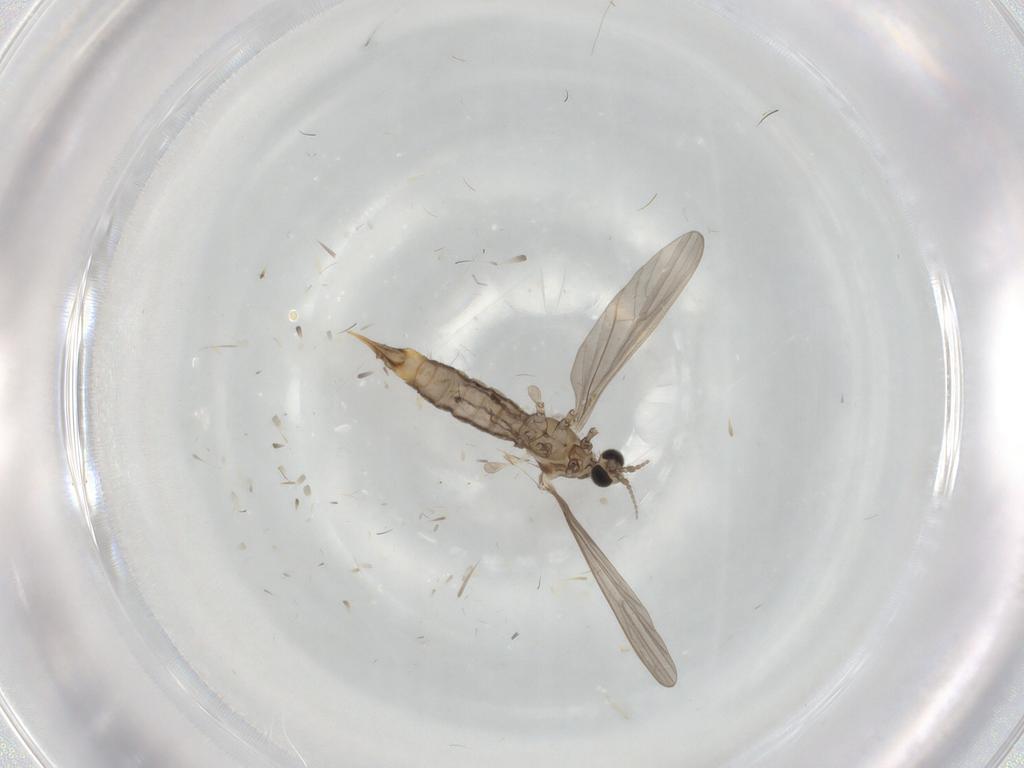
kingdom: Animalia
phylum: Arthropoda
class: Insecta
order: Diptera
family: Limoniidae
